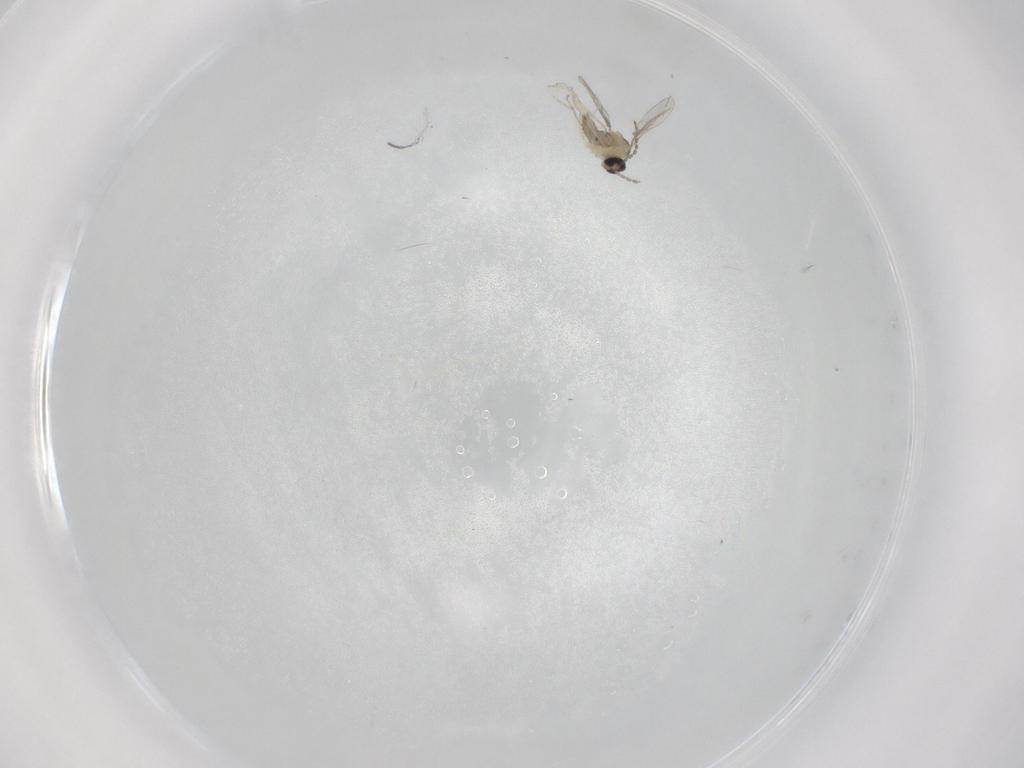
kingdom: Animalia
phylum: Arthropoda
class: Insecta
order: Diptera
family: Cecidomyiidae
